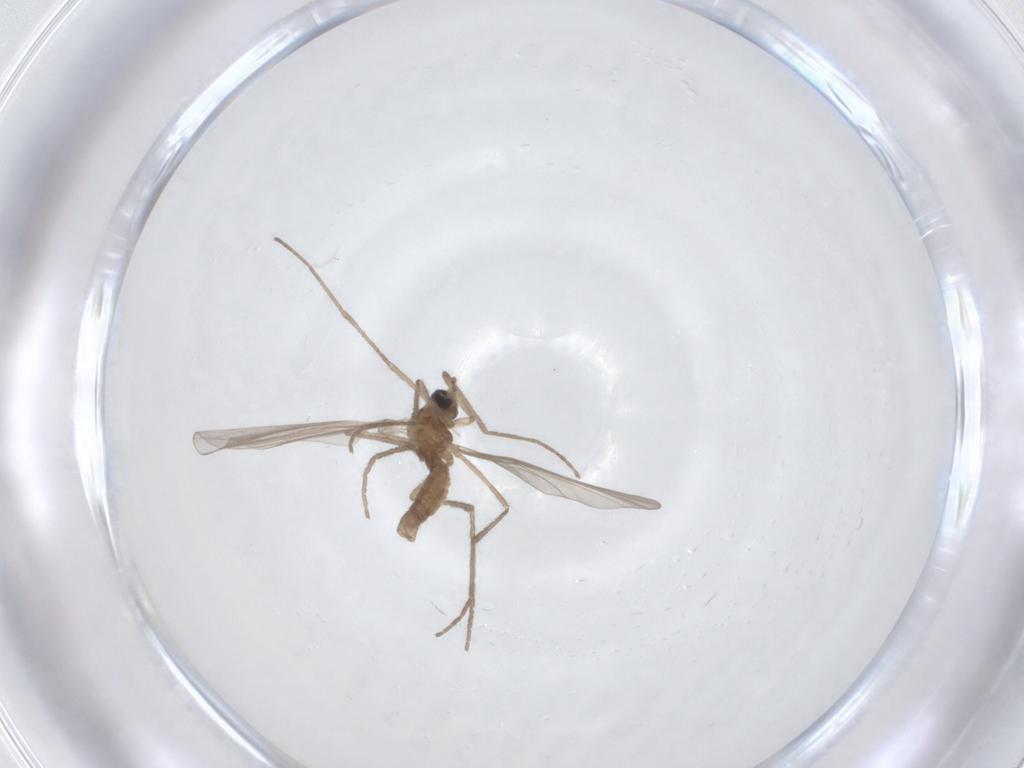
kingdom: Animalia
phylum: Arthropoda
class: Insecta
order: Diptera
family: Cecidomyiidae
